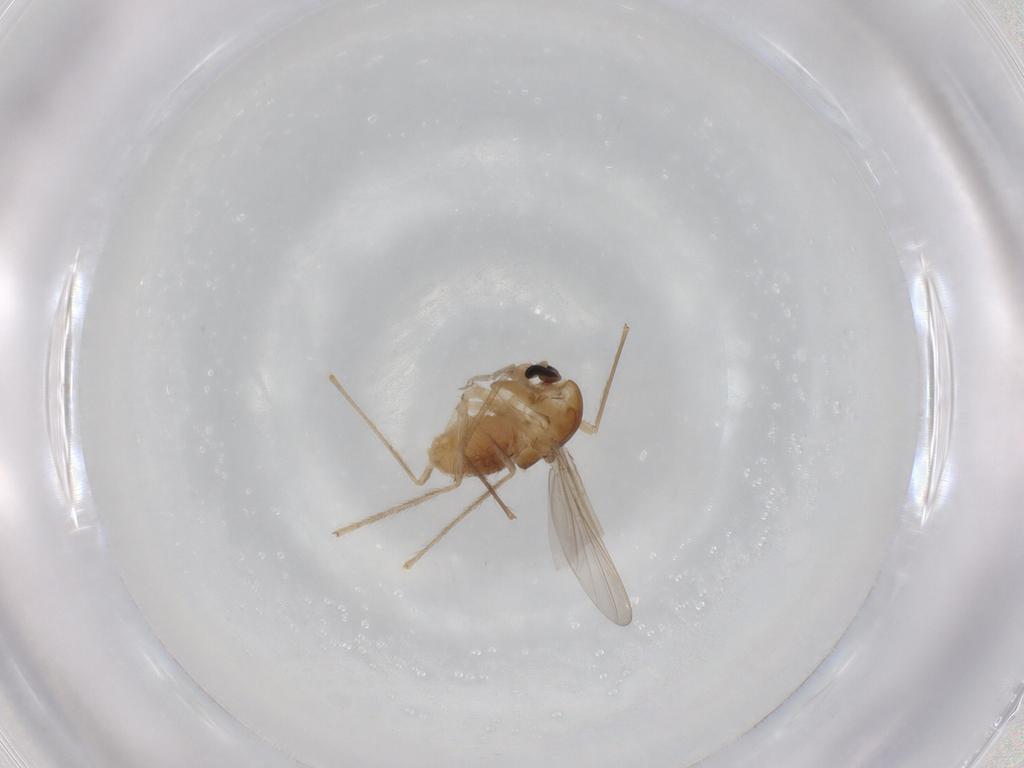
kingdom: Animalia
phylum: Arthropoda
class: Insecta
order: Diptera
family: Chironomidae
